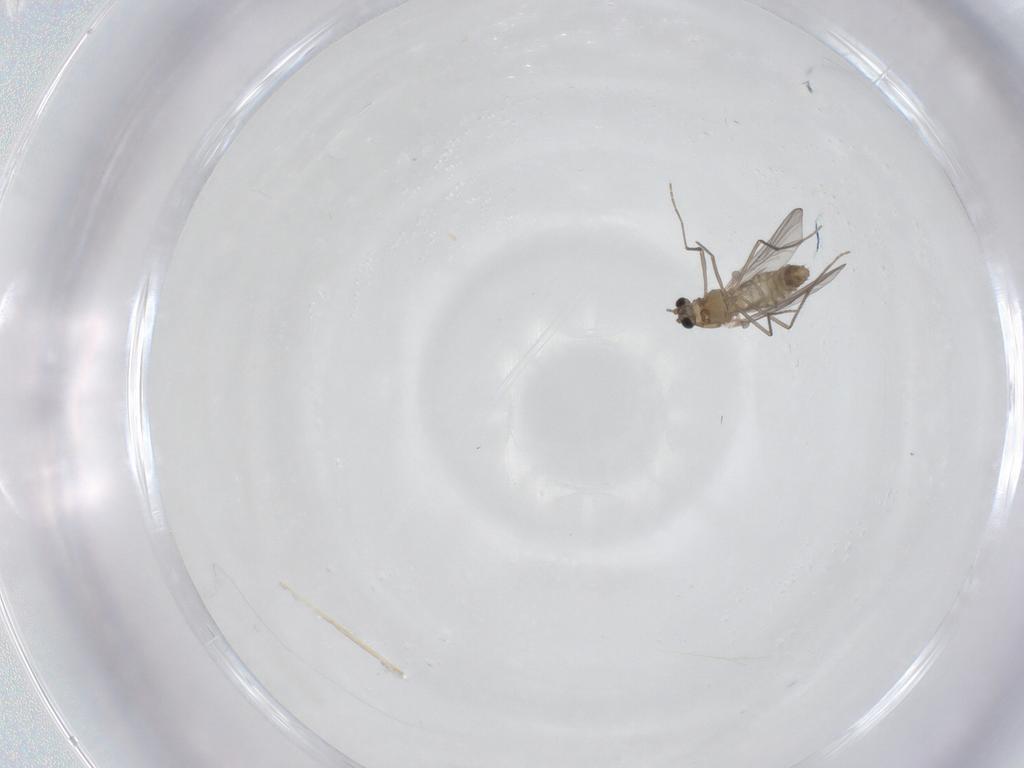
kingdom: Animalia
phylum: Arthropoda
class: Insecta
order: Diptera
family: Chironomidae
